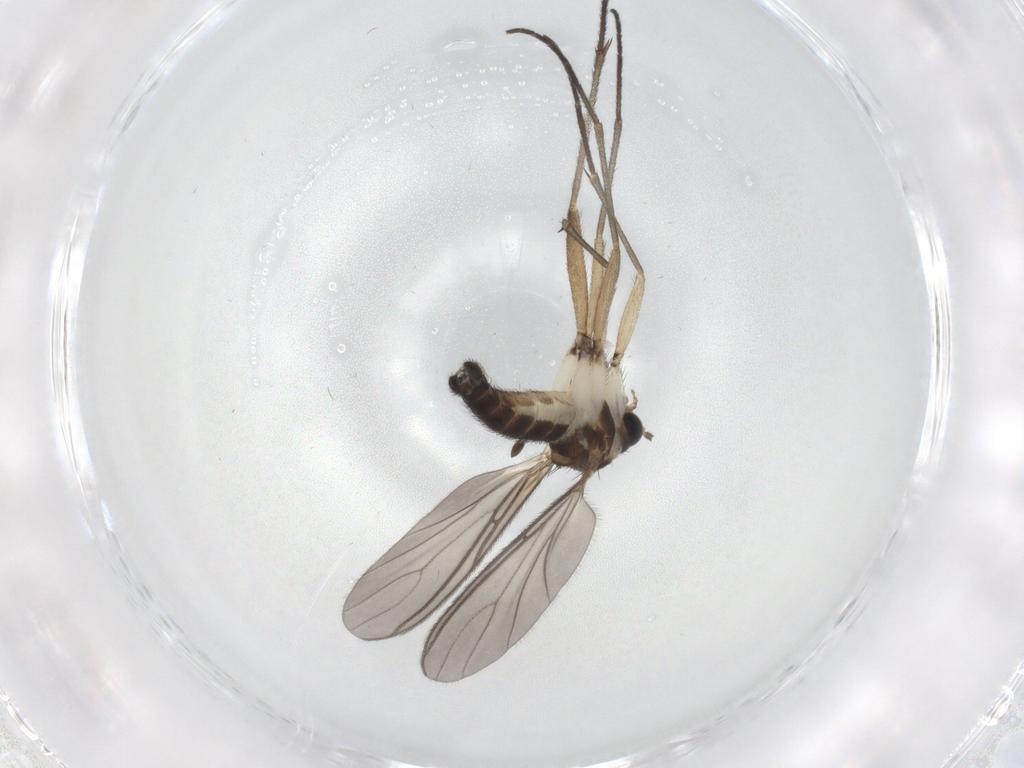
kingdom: Animalia
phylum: Arthropoda
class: Insecta
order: Diptera
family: Sciaridae
